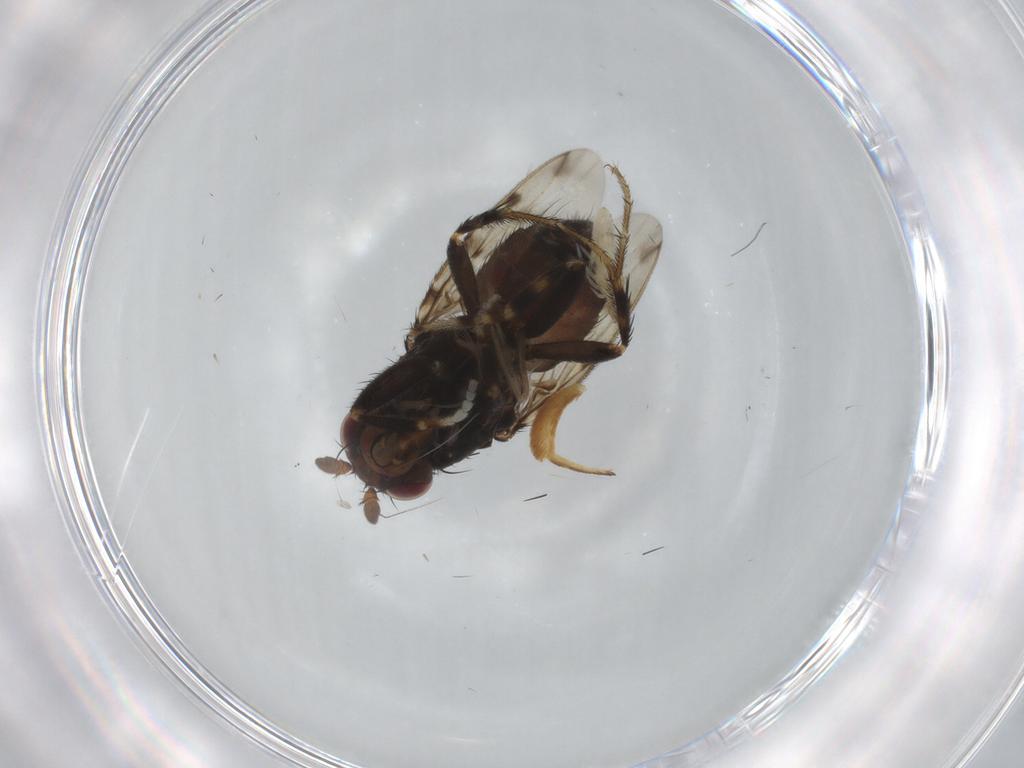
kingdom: Animalia
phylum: Arthropoda
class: Insecta
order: Diptera
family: Sphaeroceridae
